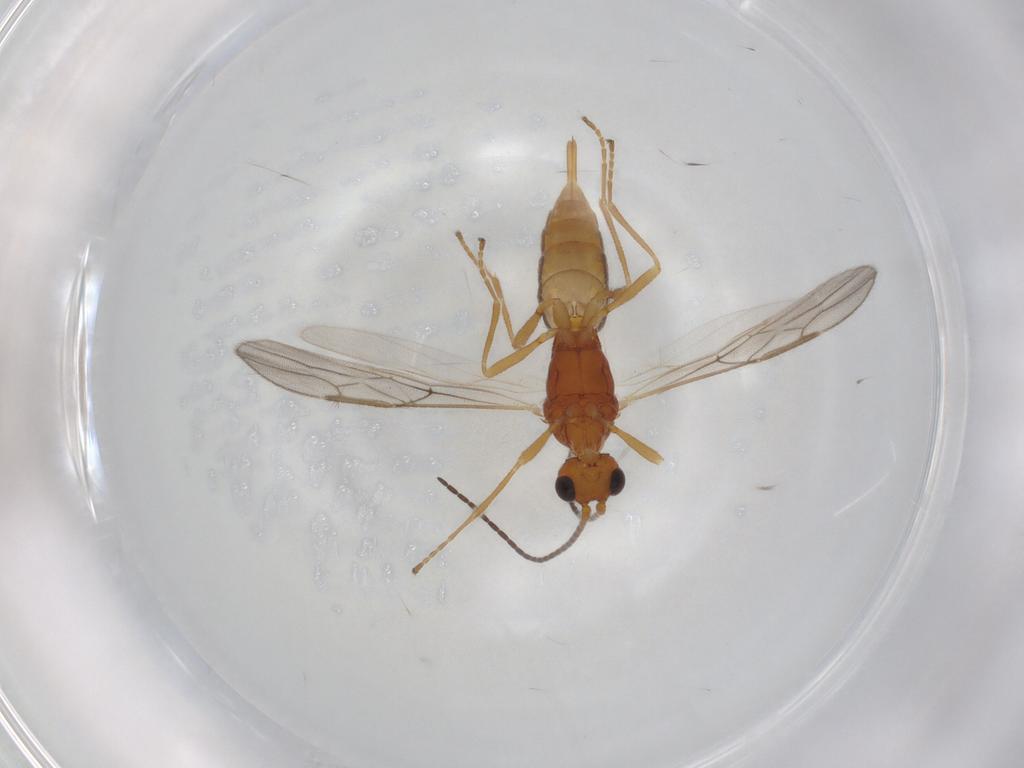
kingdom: Animalia
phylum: Arthropoda
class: Insecta
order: Hymenoptera
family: Braconidae
